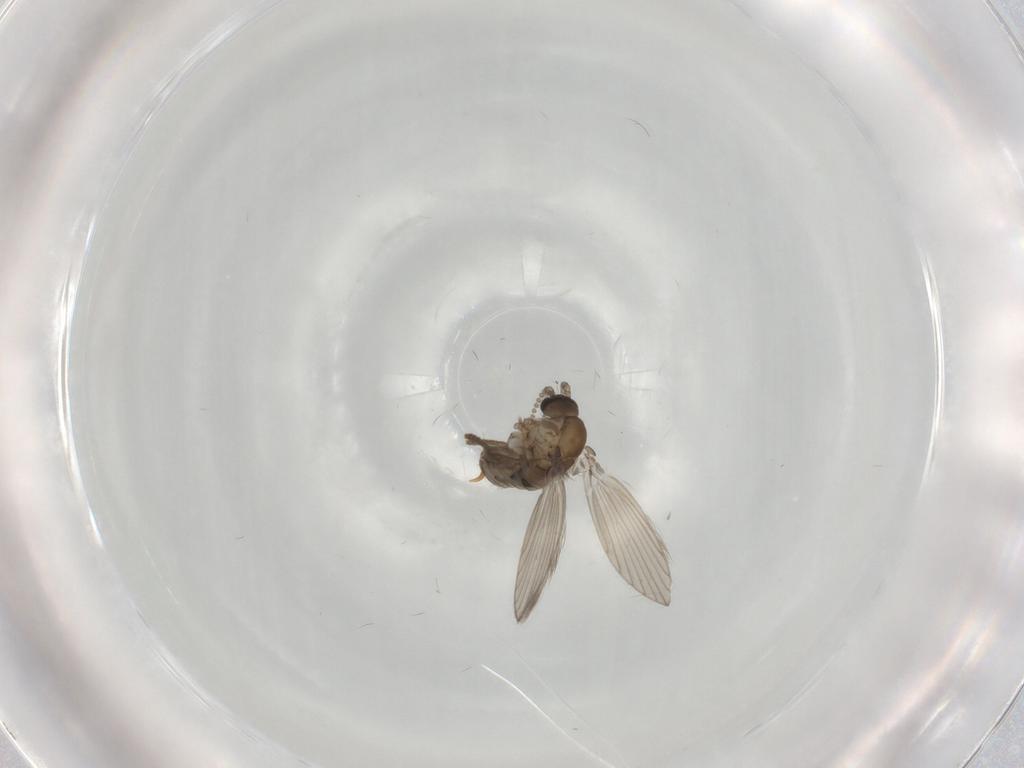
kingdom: Animalia
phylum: Arthropoda
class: Insecta
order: Diptera
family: Psychodidae
